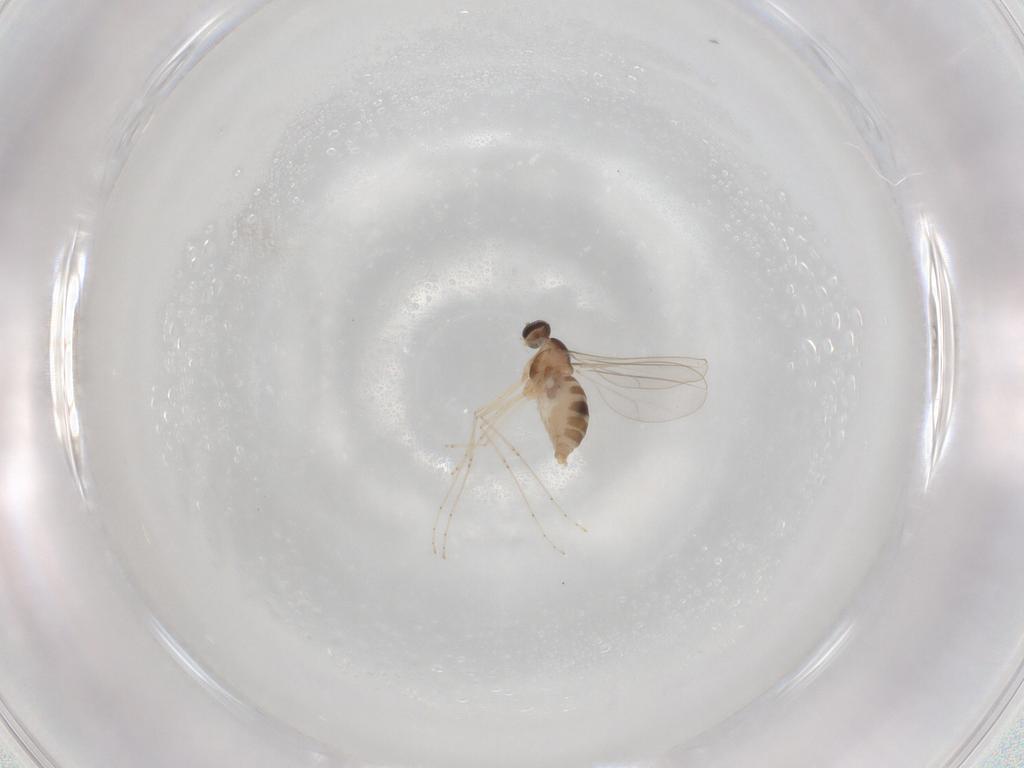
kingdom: Animalia
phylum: Arthropoda
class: Insecta
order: Diptera
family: Cecidomyiidae
